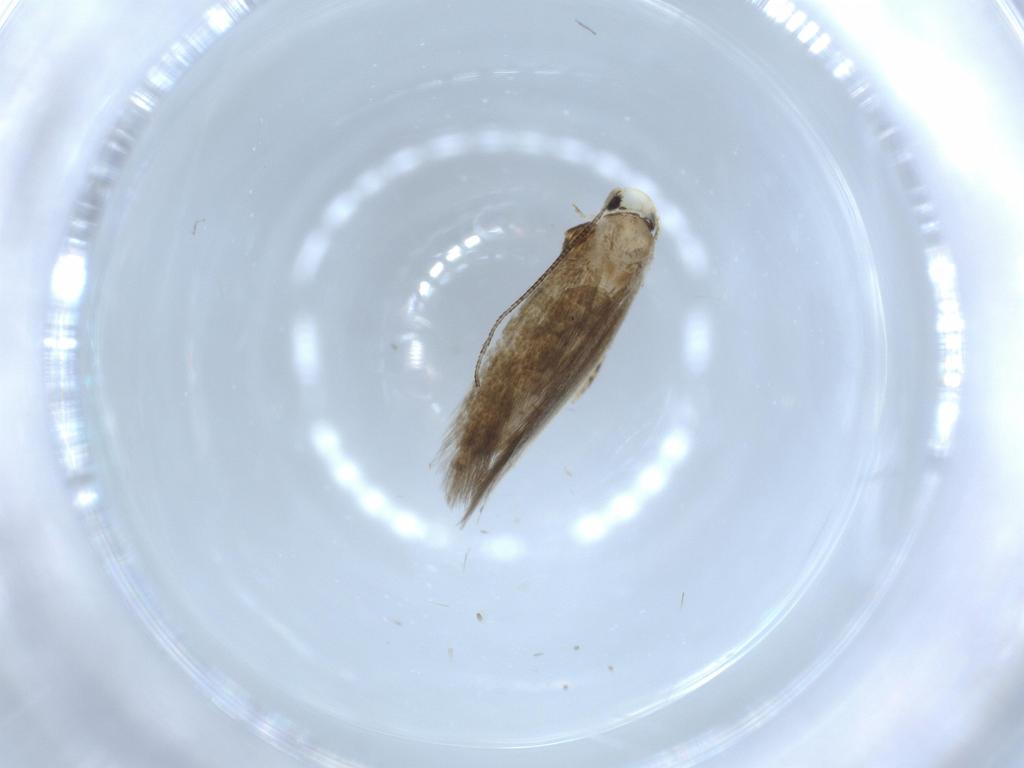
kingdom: Animalia
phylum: Arthropoda
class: Insecta
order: Lepidoptera
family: Tineidae
